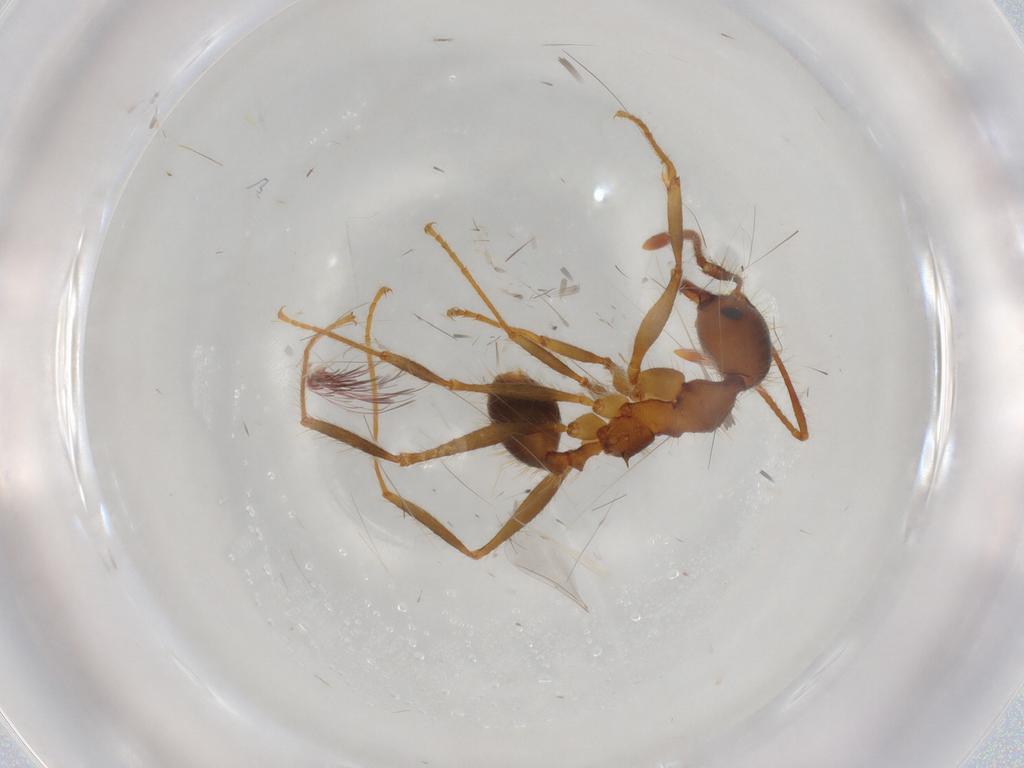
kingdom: Animalia
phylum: Arthropoda
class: Insecta
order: Hymenoptera
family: Formicidae
